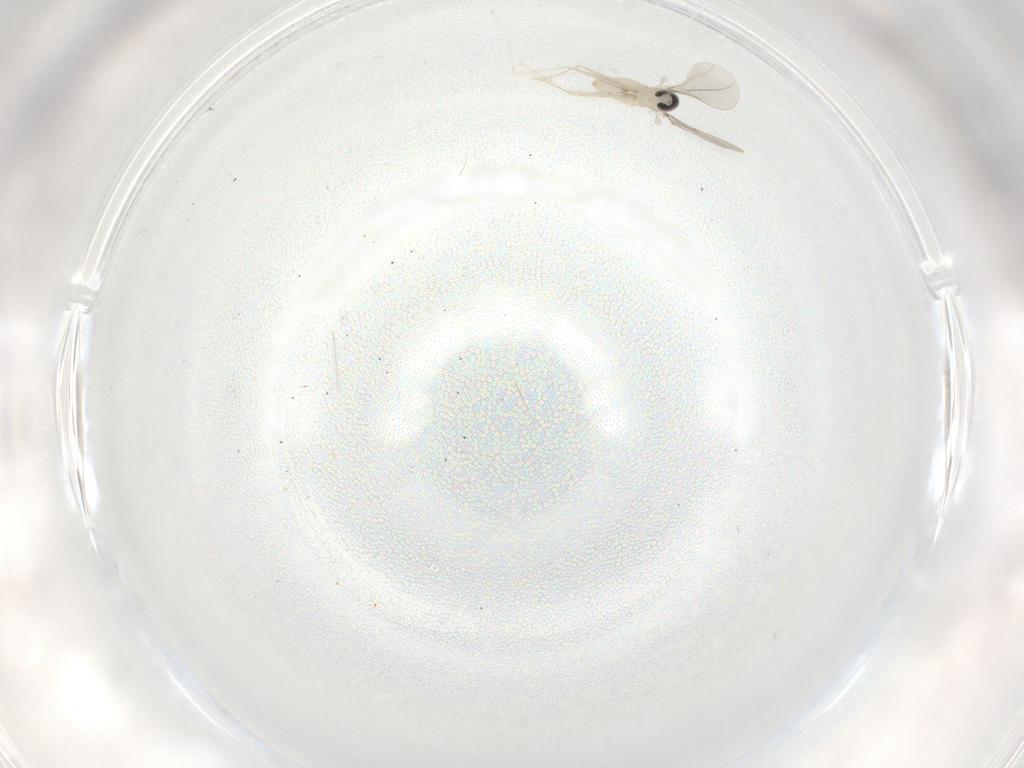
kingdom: Animalia
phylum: Arthropoda
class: Insecta
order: Diptera
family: Cecidomyiidae
